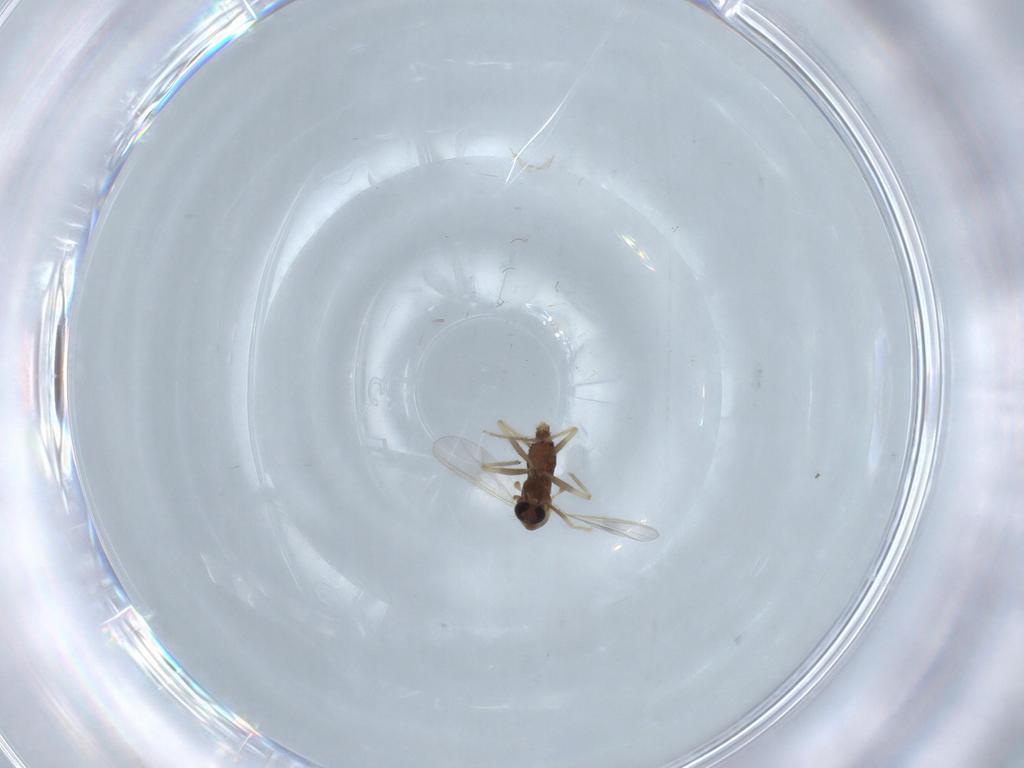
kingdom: Animalia
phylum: Arthropoda
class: Insecta
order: Diptera
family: Chironomidae
